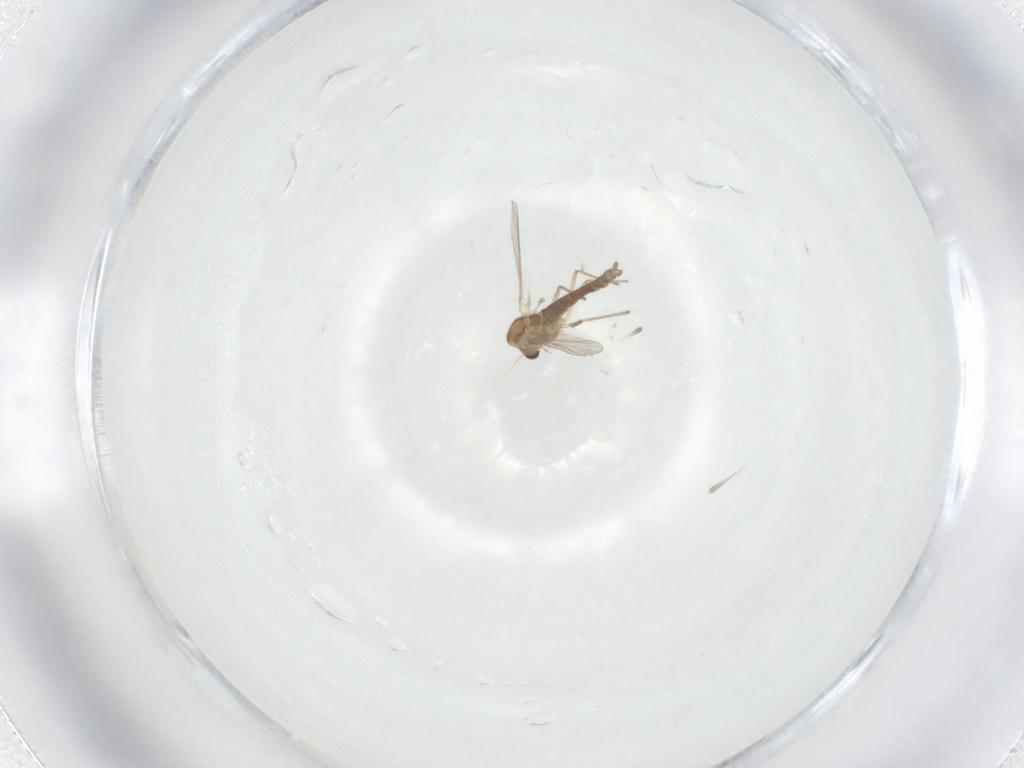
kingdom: Animalia
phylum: Arthropoda
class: Insecta
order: Diptera
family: Chironomidae
